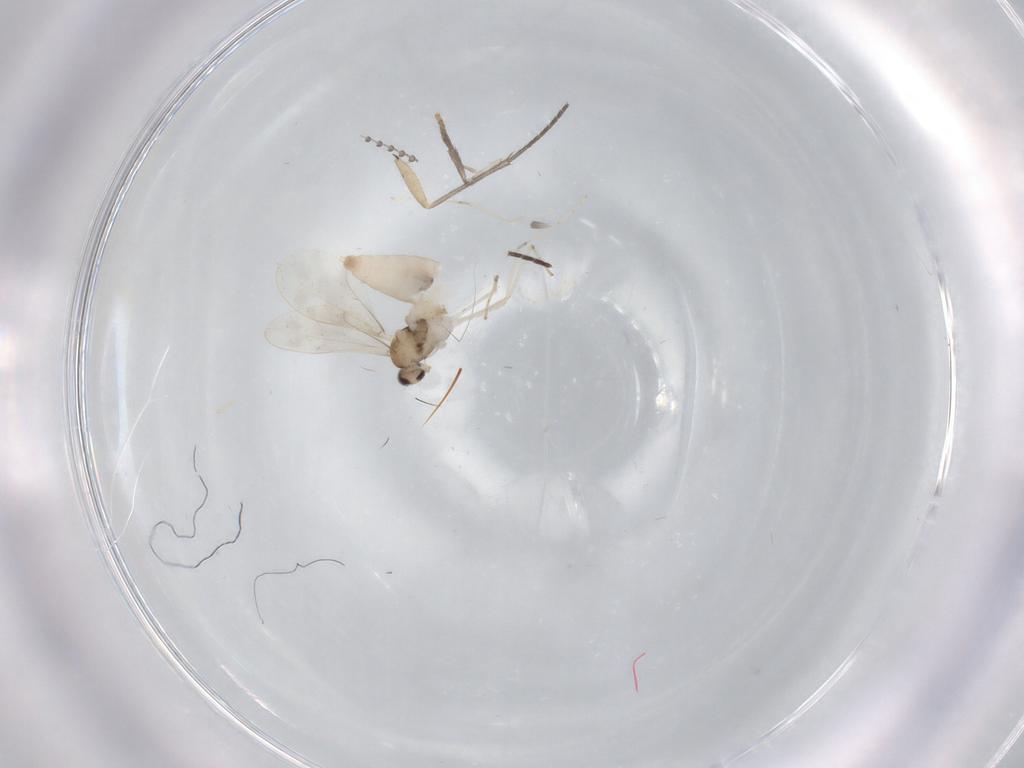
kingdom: Animalia
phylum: Arthropoda
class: Insecta
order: Diptera
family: Cecidomyiidae
